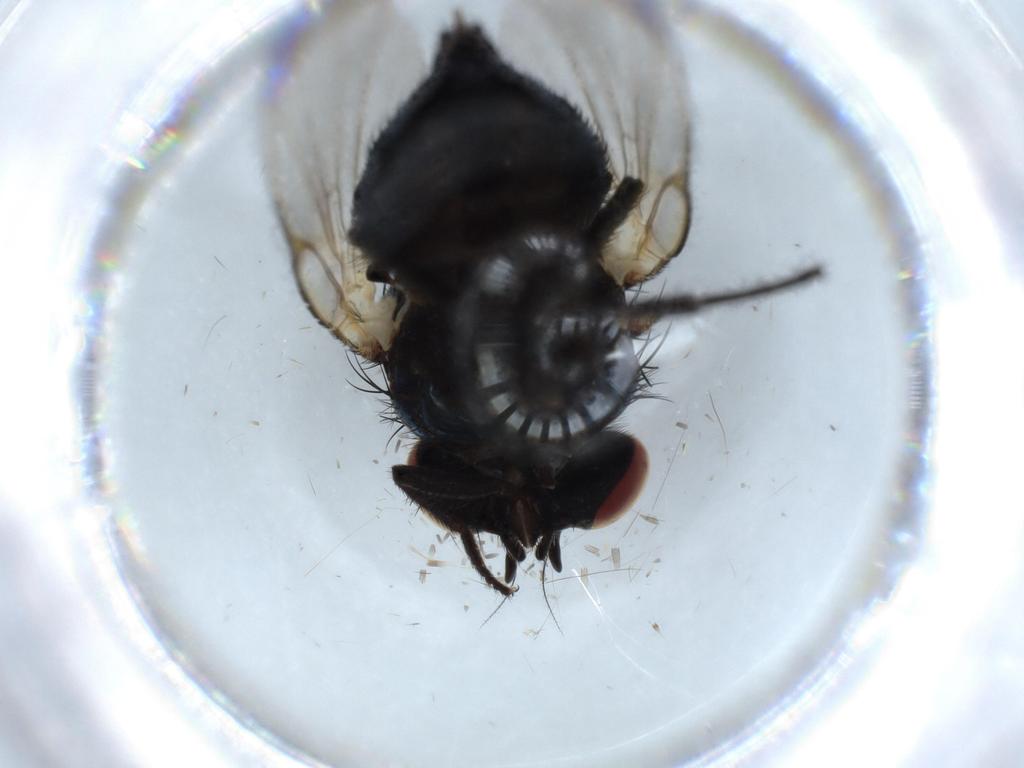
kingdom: Animalia
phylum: Arthropoda
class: Insecta
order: Diptera
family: Lonchaeidae
